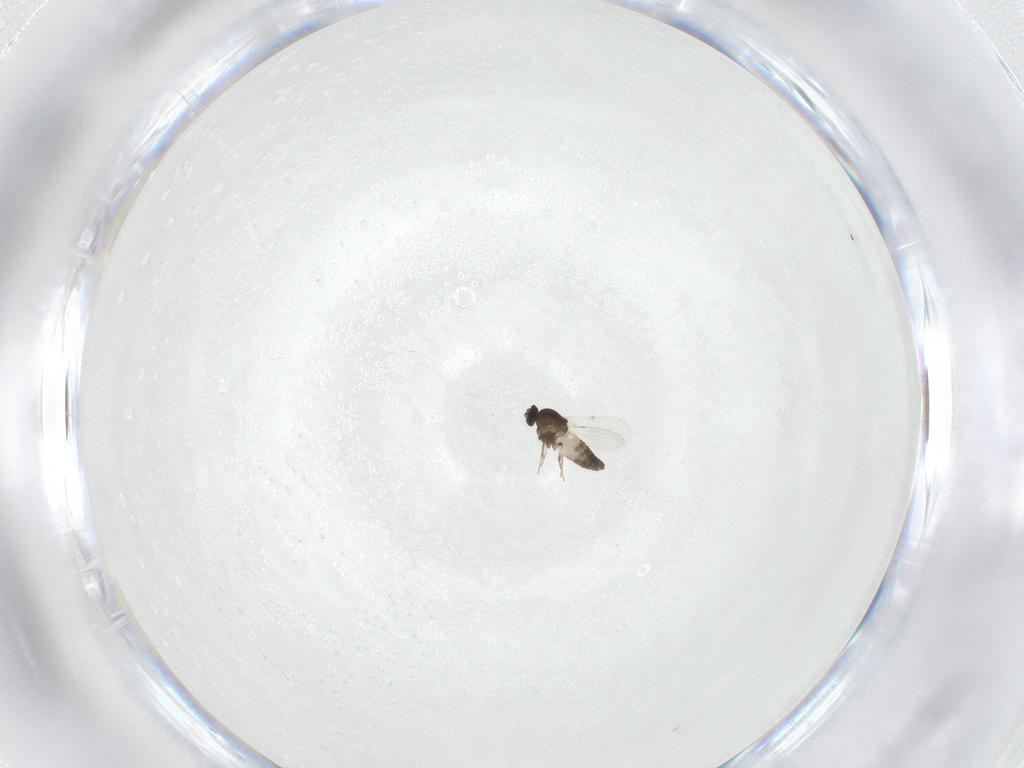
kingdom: Animalia
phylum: Arthropoda
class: Insecta
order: Diptera
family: Ceratopogonidae
